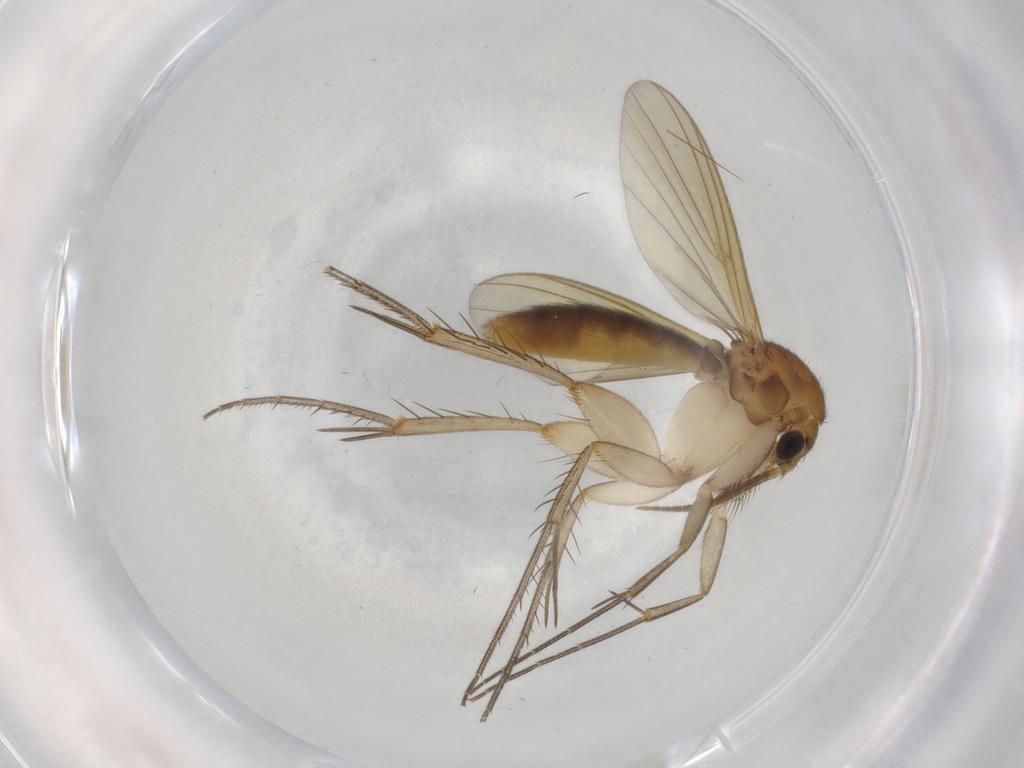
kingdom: Animalia
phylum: Arthropoda
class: Insecta
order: Diptera
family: Mycetophilidae
